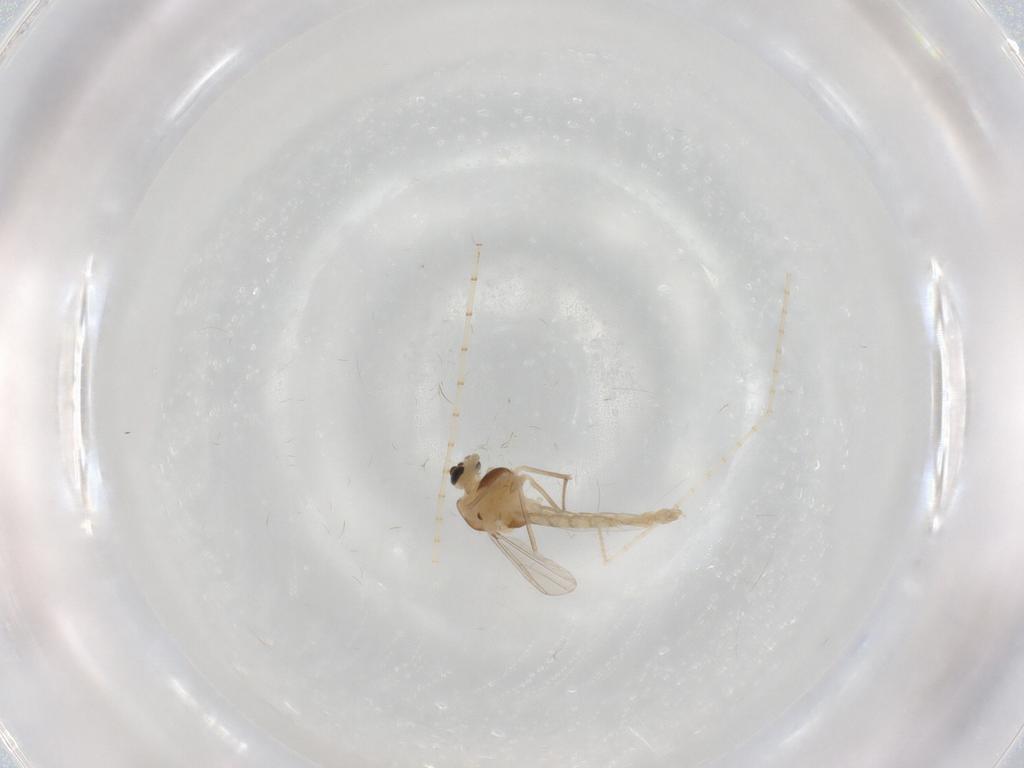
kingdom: Animalia
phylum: Arthropoda
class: Insecta
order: Diptera
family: Chironomidae
